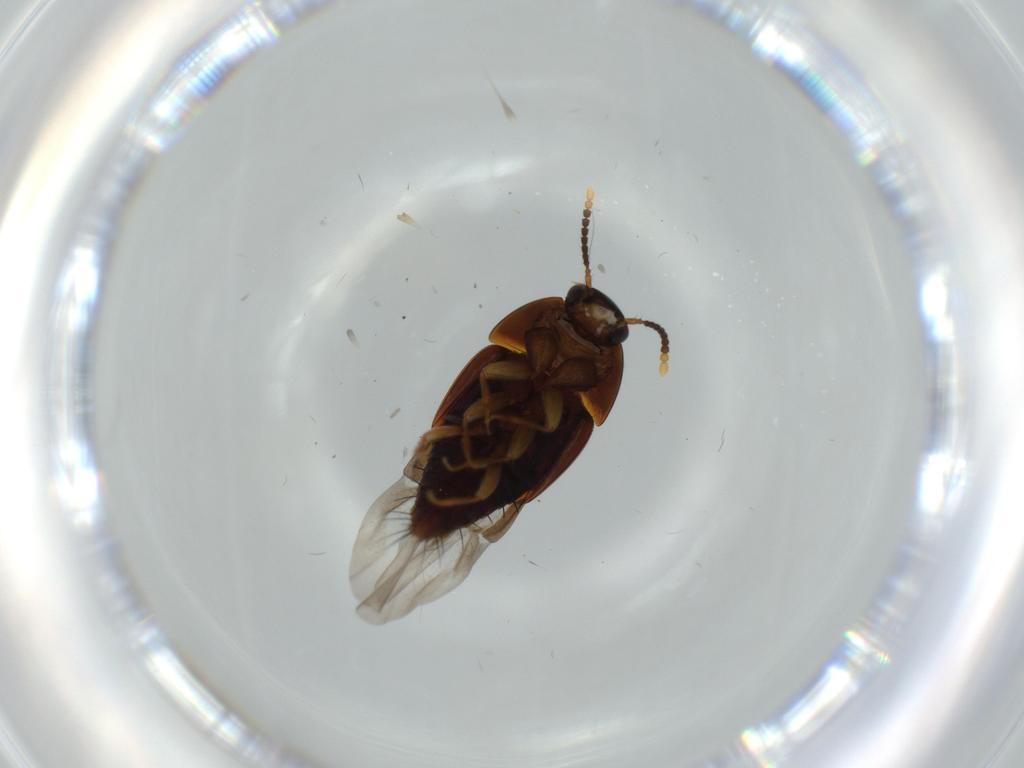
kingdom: Animalia
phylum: Arthropoda
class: Insecta
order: Coleoptera
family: Staphylinidae
